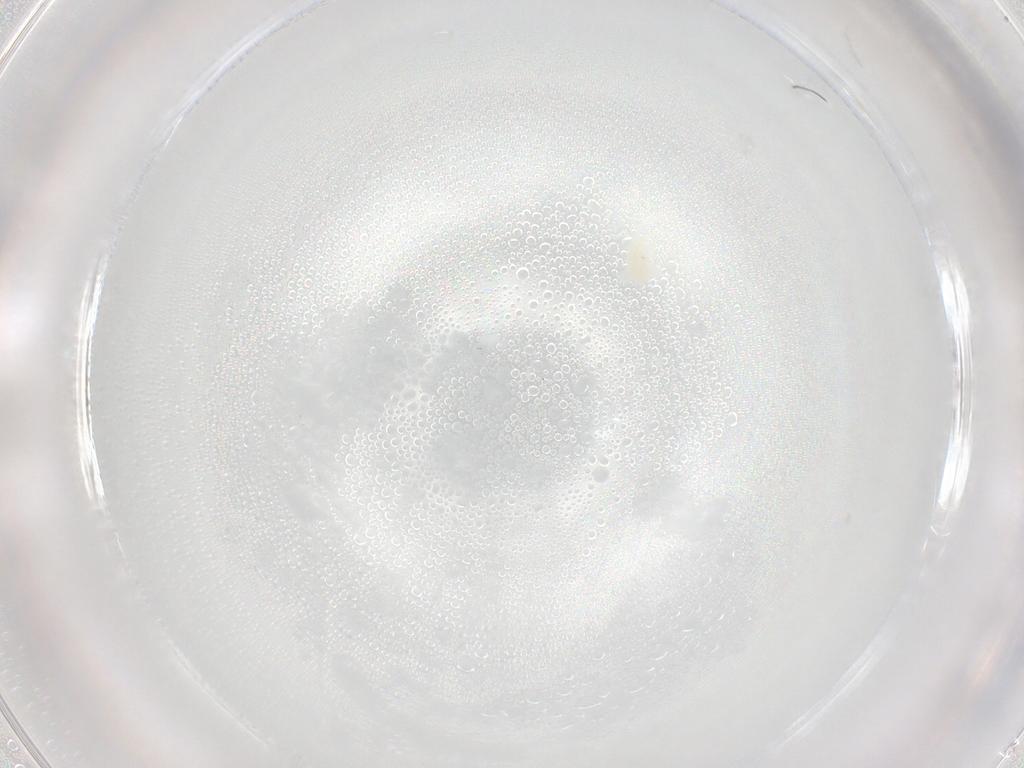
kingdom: Animalia
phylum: Arthropoda
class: Arachnida
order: Trombidiformes
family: Eupodidae
